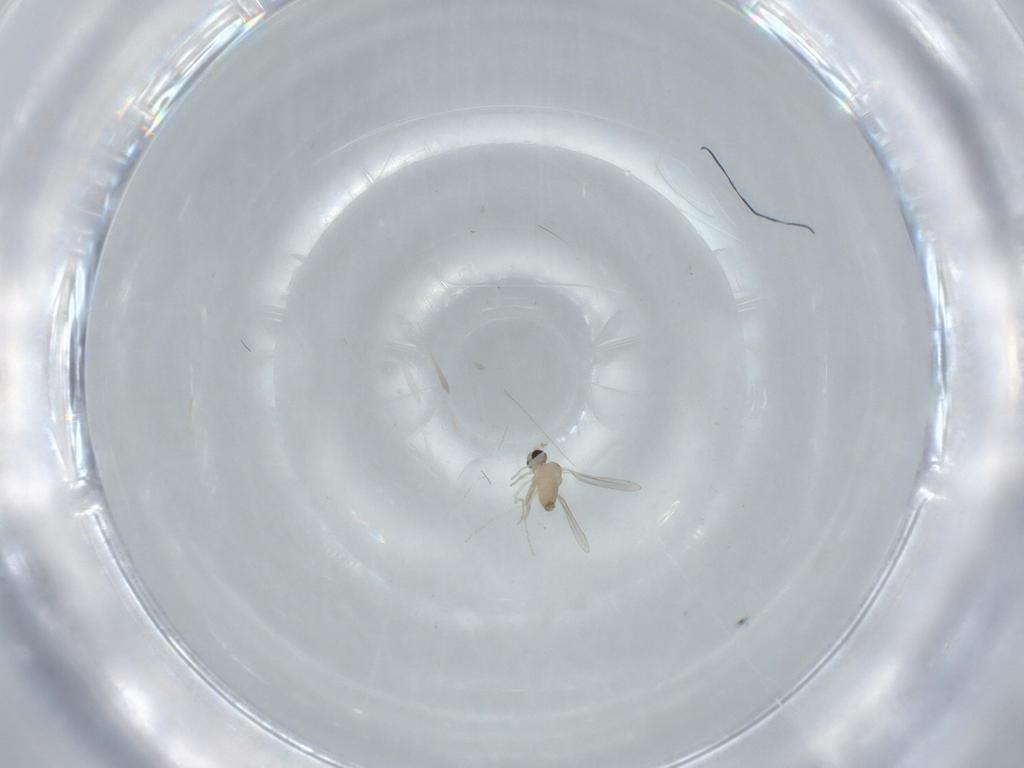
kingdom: Animalia
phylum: Arthropoda
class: Insecta
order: Diptera
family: Cecidomyiidae
